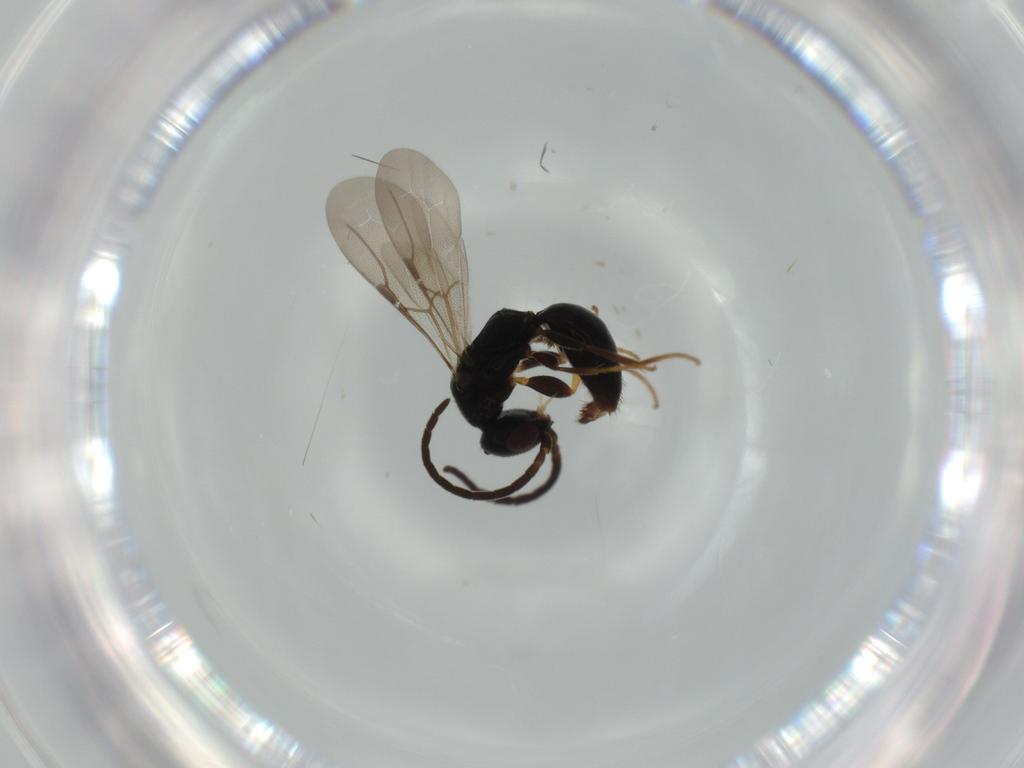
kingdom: Animalia
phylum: Arthropoda
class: Insecta
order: Hymenoptera
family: Bethylidae
